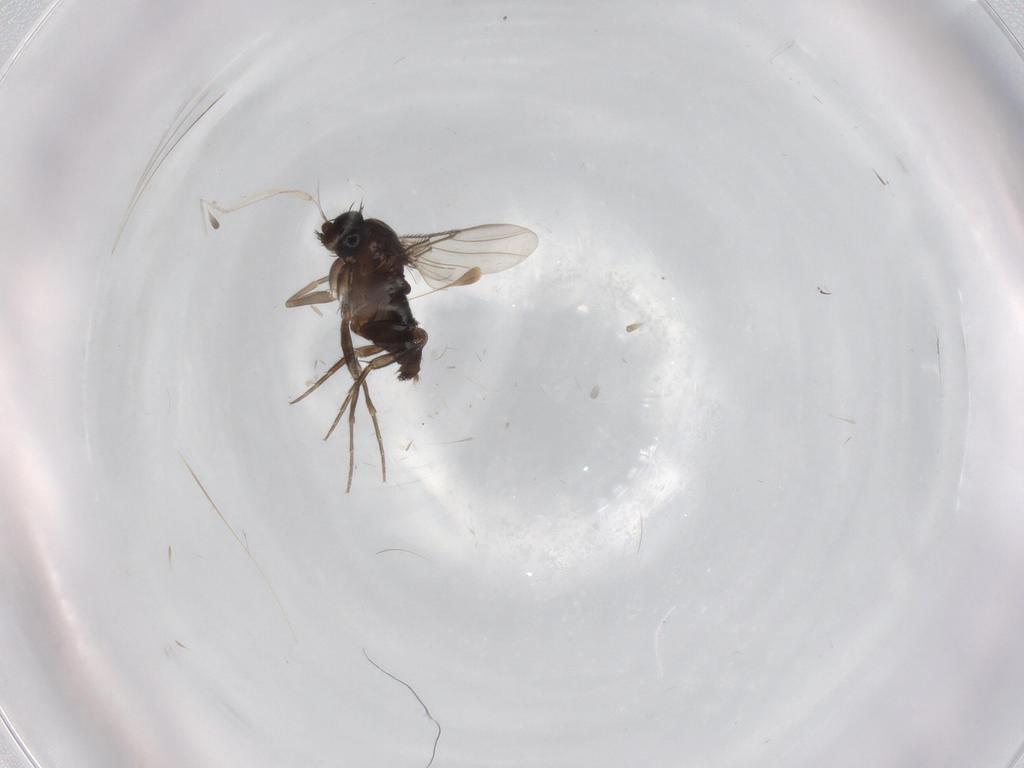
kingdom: Animalia
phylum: Arthropoda
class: Insecta
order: Diptera
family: Phoridae
